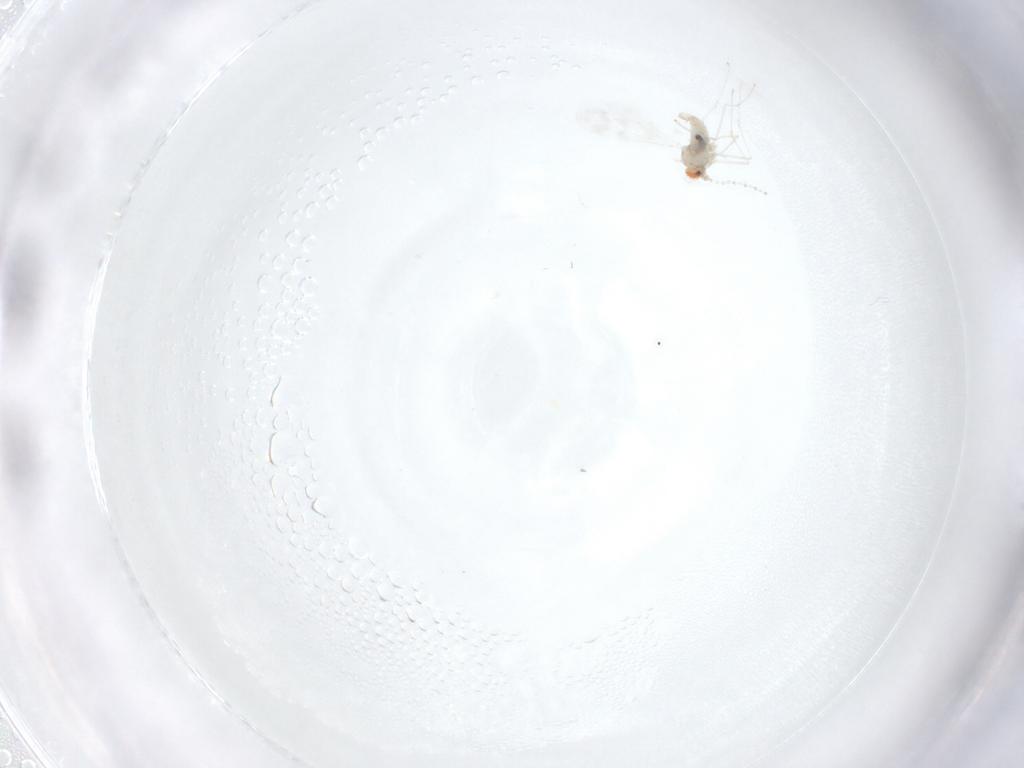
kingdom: Animalia
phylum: Arthropoda
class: Insecta
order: Diptera
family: Cecidomyiidae
